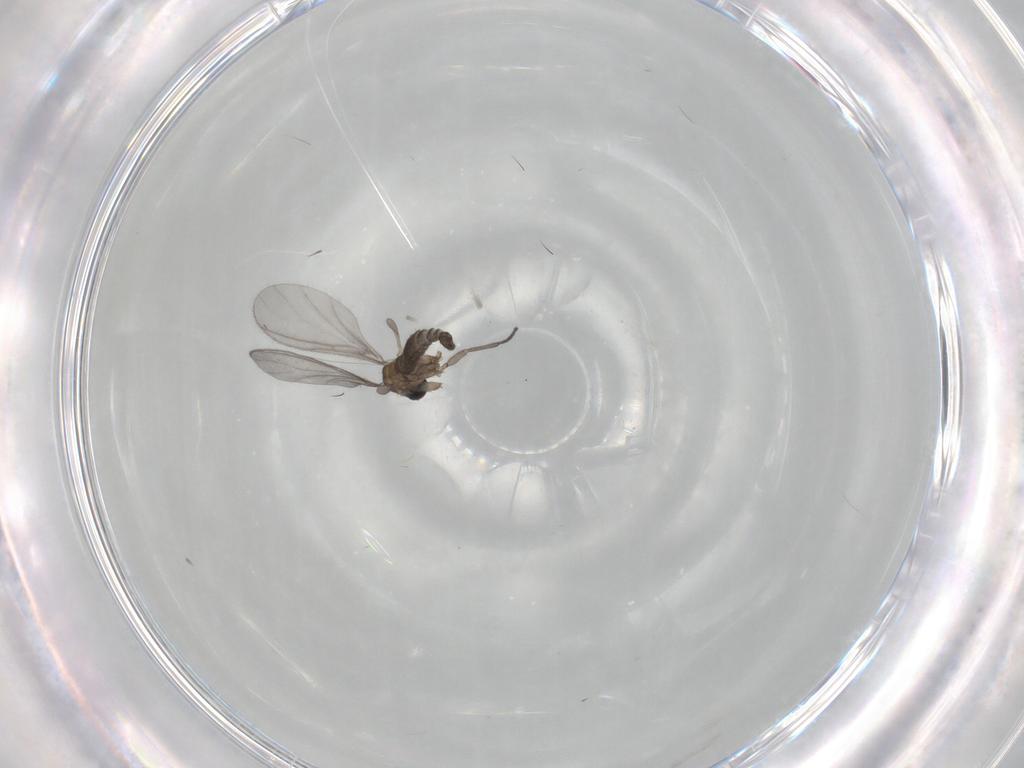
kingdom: Animalia
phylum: Arthropoda
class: Insecta
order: Diptera
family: Sciaridae
